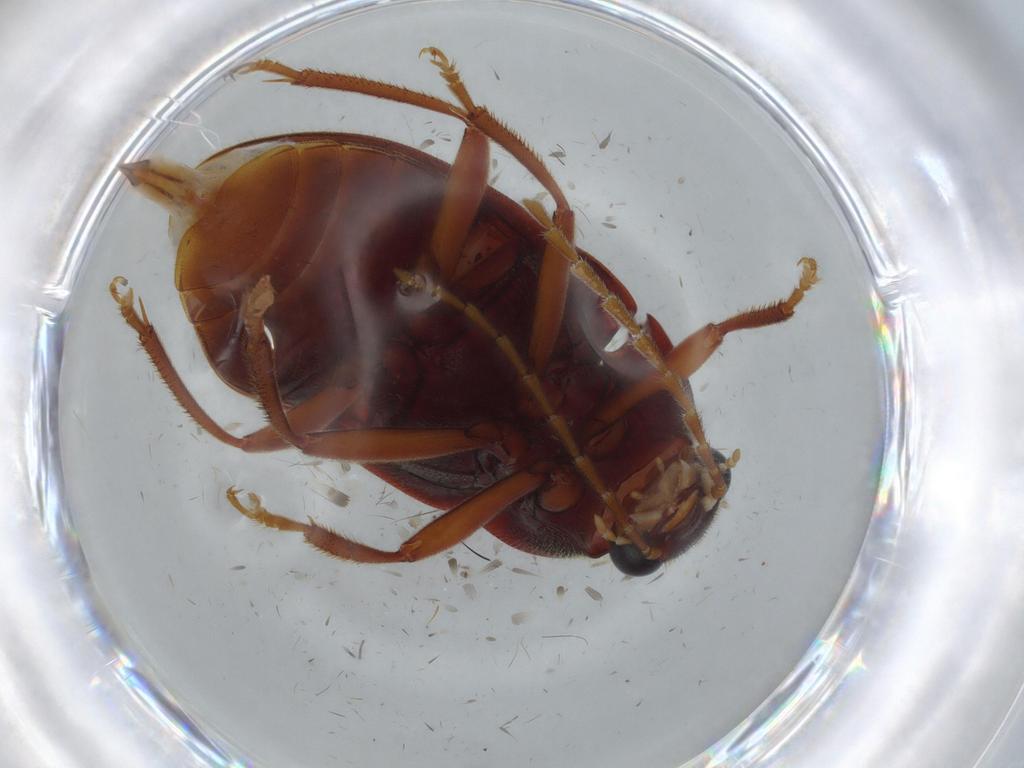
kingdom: Animalia
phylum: Arthropoda
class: Insecta
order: Coleoptera
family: Ptilodactylidae
